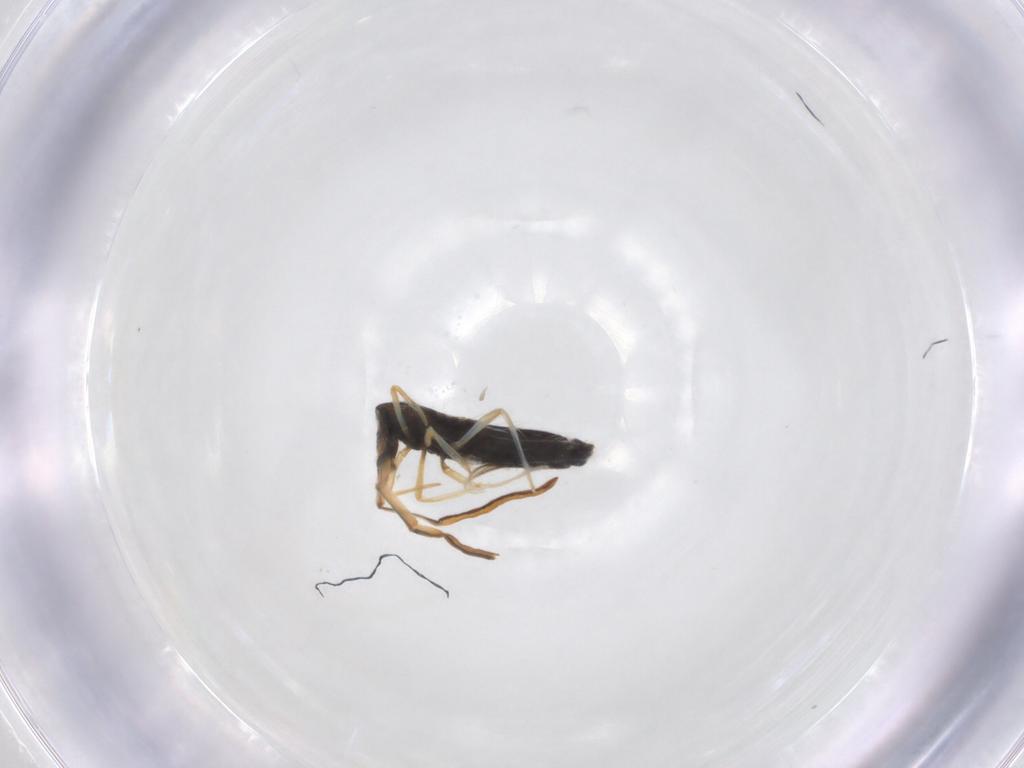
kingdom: Animalia
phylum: Arthropoda
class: Collembola
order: Entomobryomorpha
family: Entomobryidae
